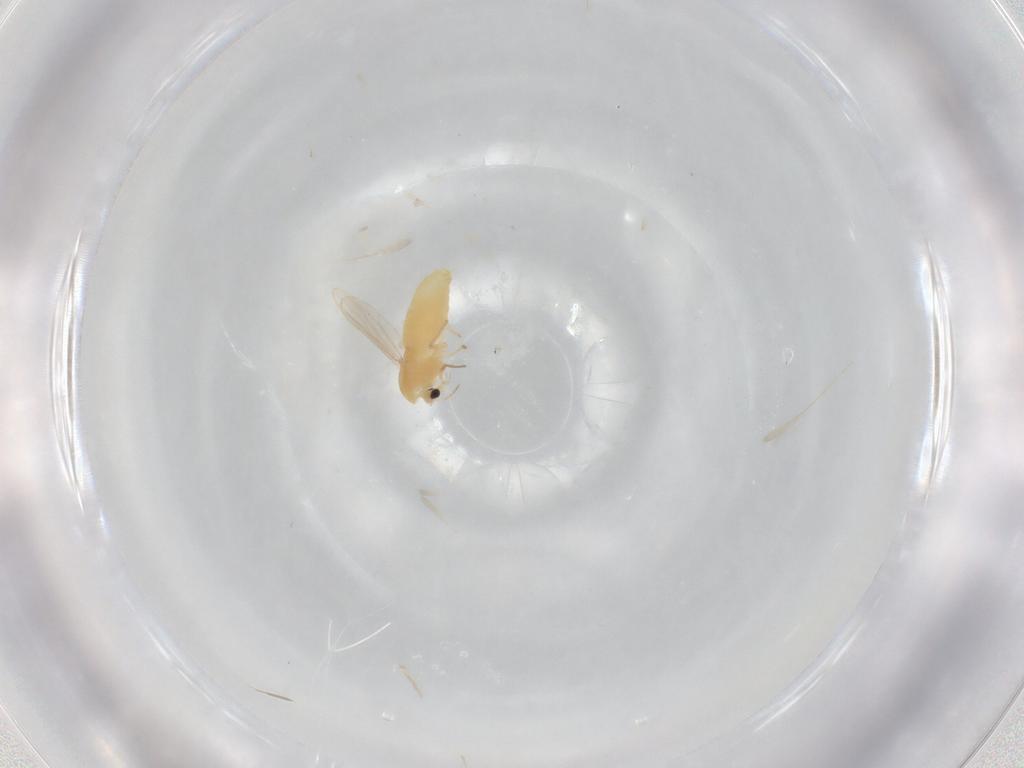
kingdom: Animalia
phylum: Arthropoda
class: Insecta
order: Diptera
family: Chironomidae
